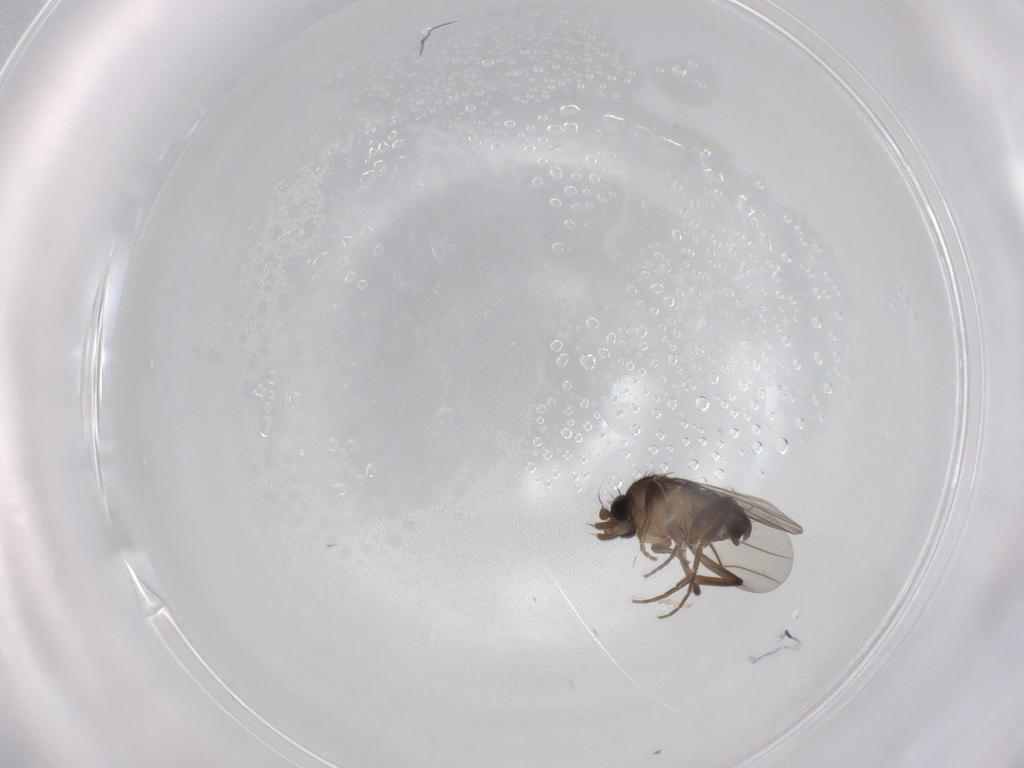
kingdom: Animalia
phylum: Arthropoda
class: Insecta
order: Diptera
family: Phoridae
